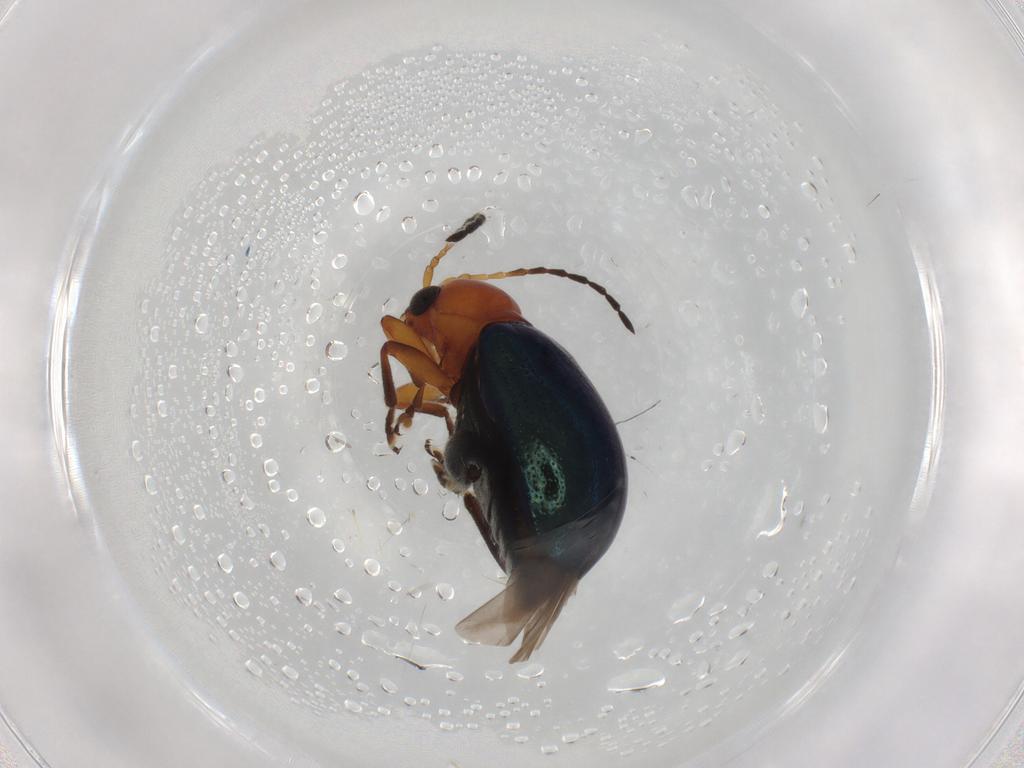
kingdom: Animalia
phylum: Arthropoda
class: Insecta
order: Coleoptera
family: Chrysomelidae
